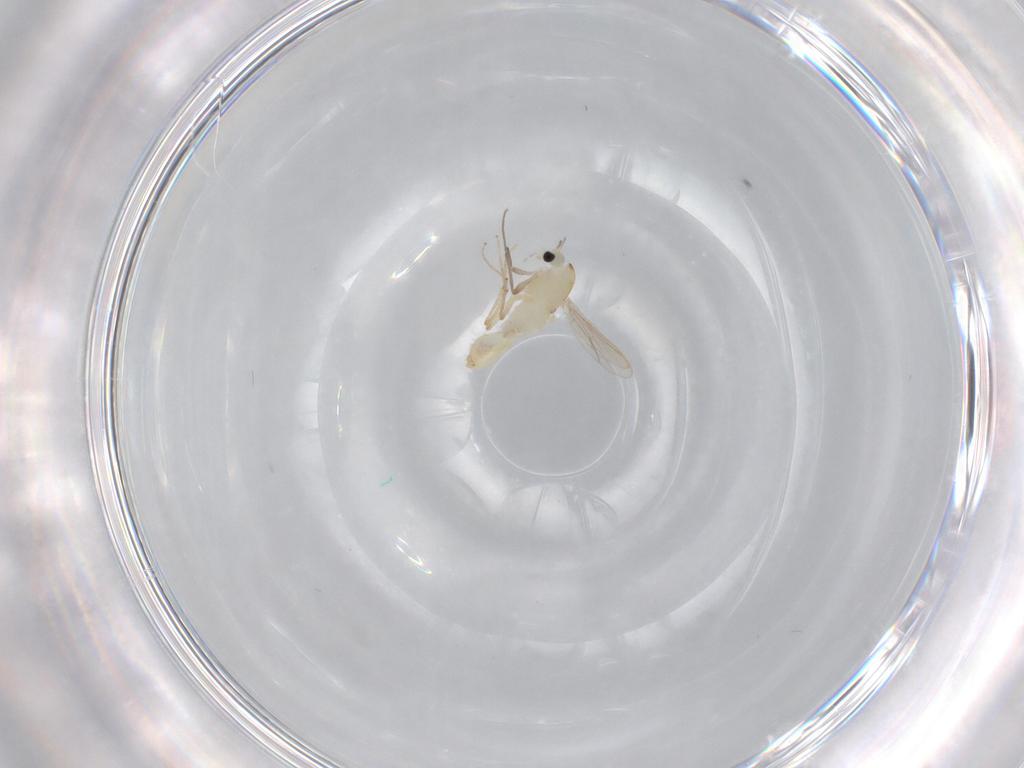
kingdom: Animalia
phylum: Arthropoda
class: Insecta
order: Diptera
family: Chironomidae
